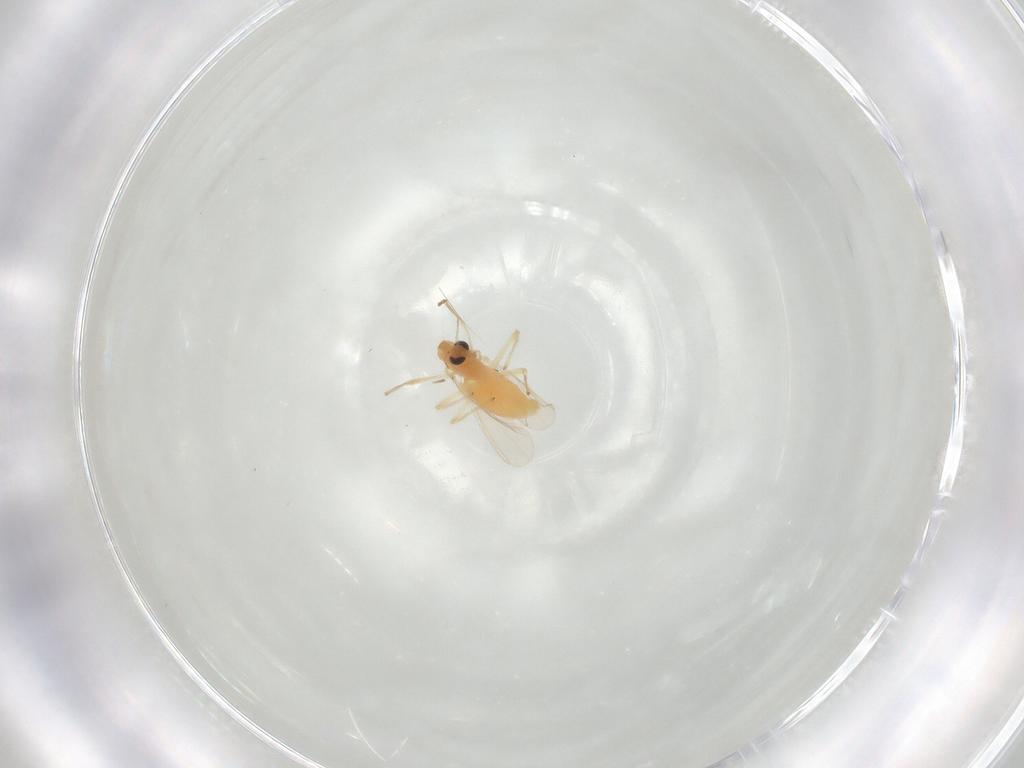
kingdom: Animalia
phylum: Arthropoda
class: Insecta
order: Diptera
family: Chironomidae
